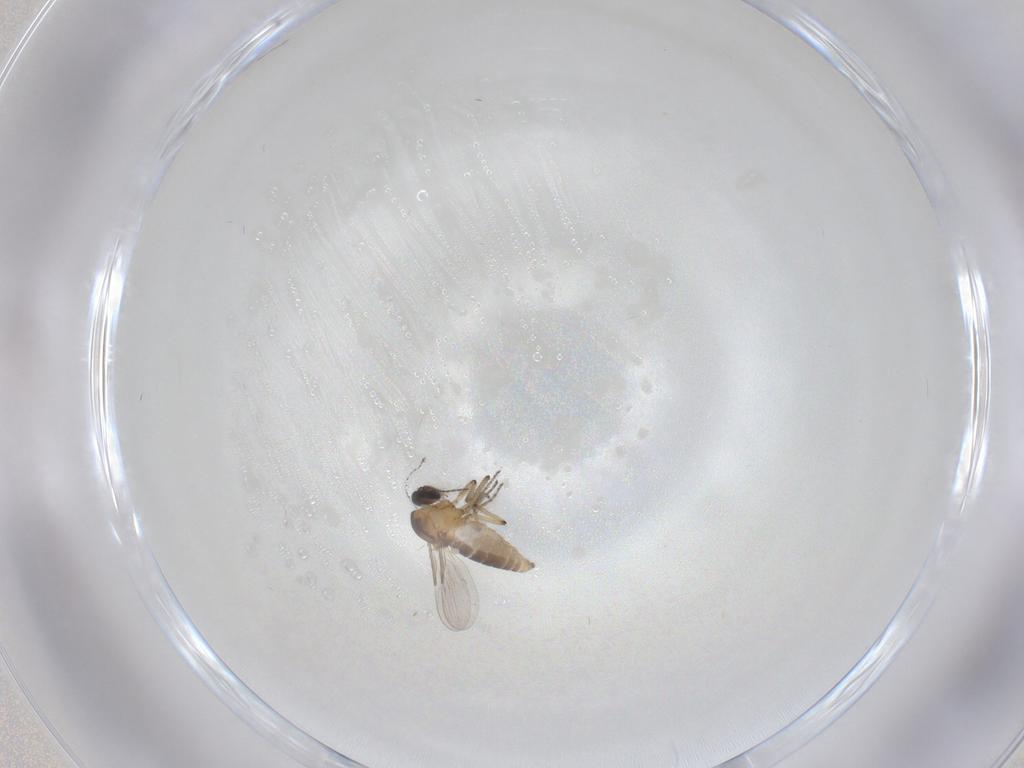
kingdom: Animalia
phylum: Arthropoda
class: Insecta
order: Diptera
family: Ceratopogonidae
